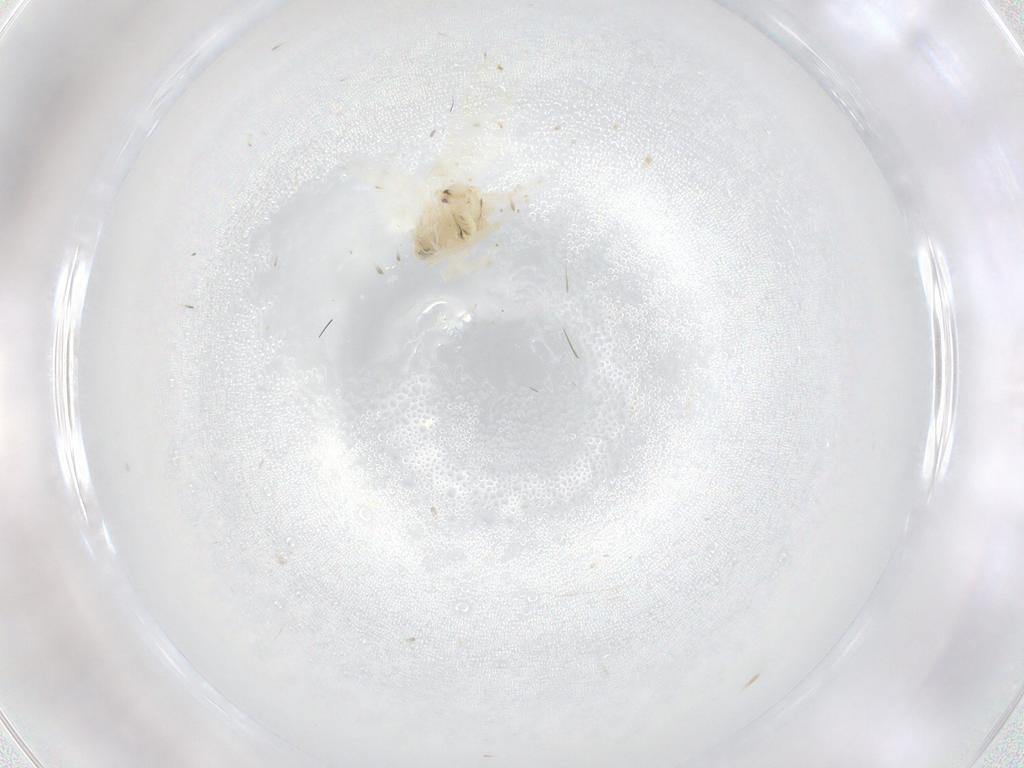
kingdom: Animalia
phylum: Arthropoda
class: Insecta
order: Hemiptera
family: Cicadellidae
